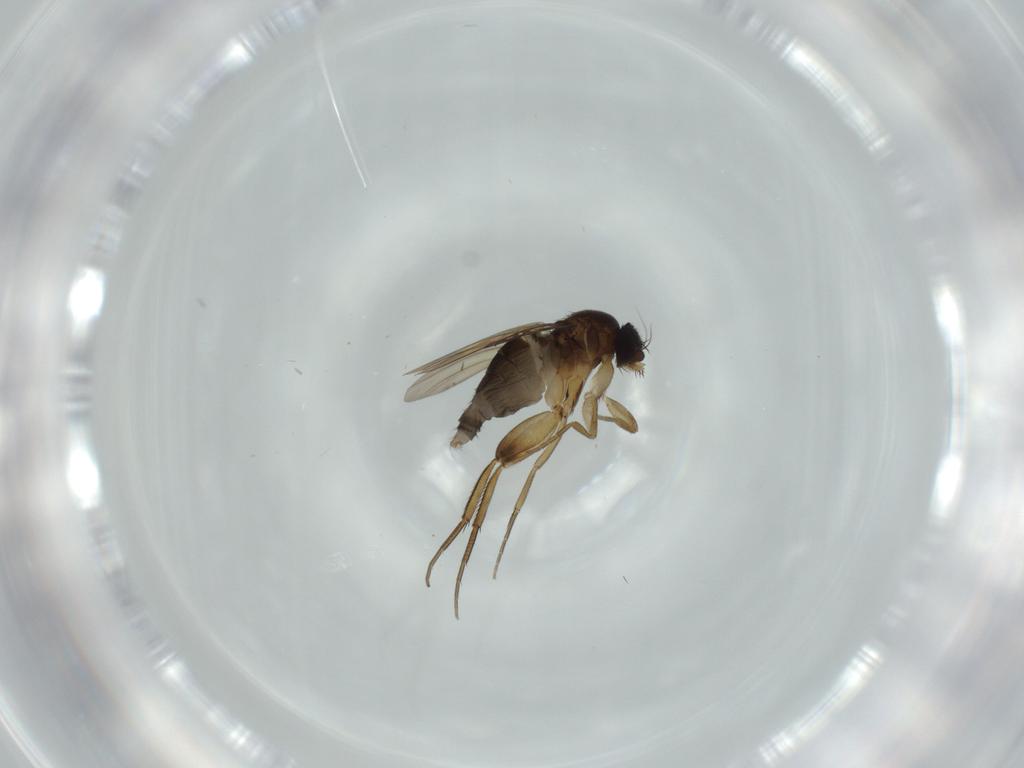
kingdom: Animalia
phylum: Arthropoda
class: Insecta
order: Diptera
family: Phoridae
